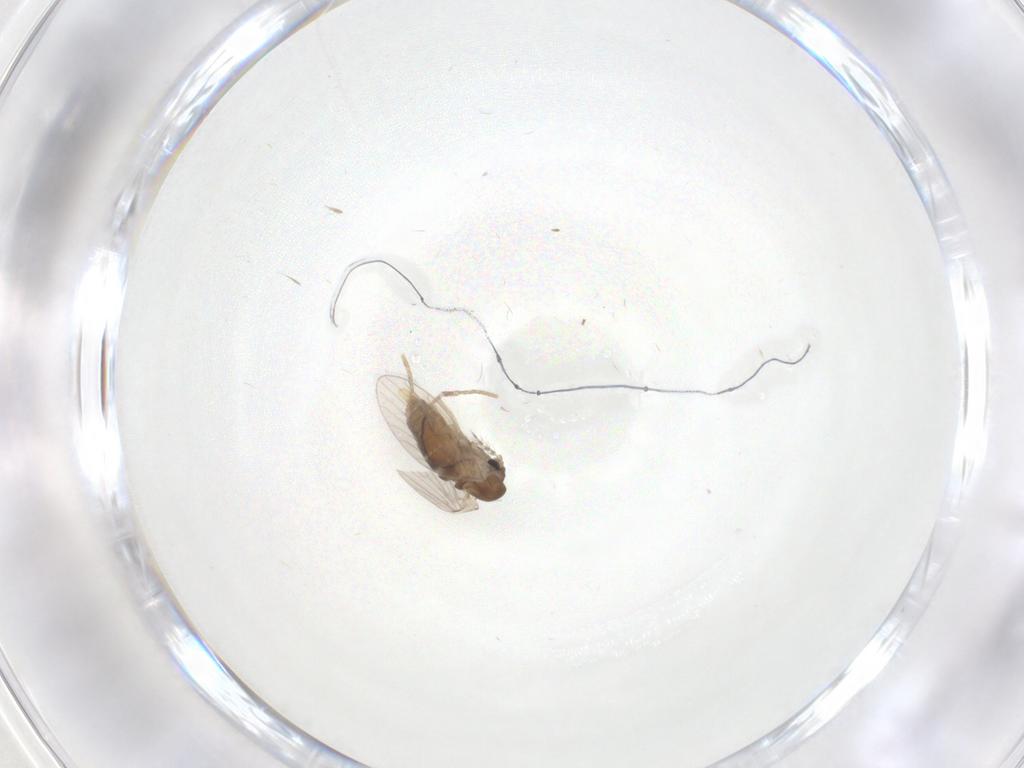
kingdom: Animalia
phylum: Arthropoda
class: Insecta
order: Diptera
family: Psychodidae
